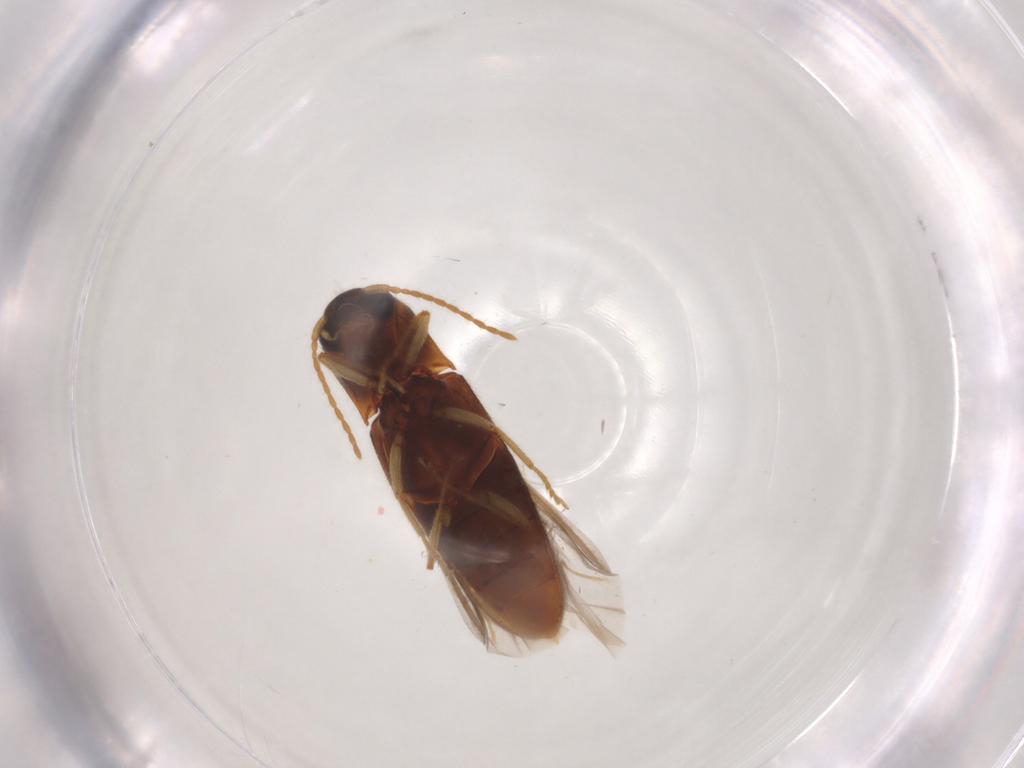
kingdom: Animalia
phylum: Arthropoda
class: Insecta
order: Coleoptera
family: Elateridae
